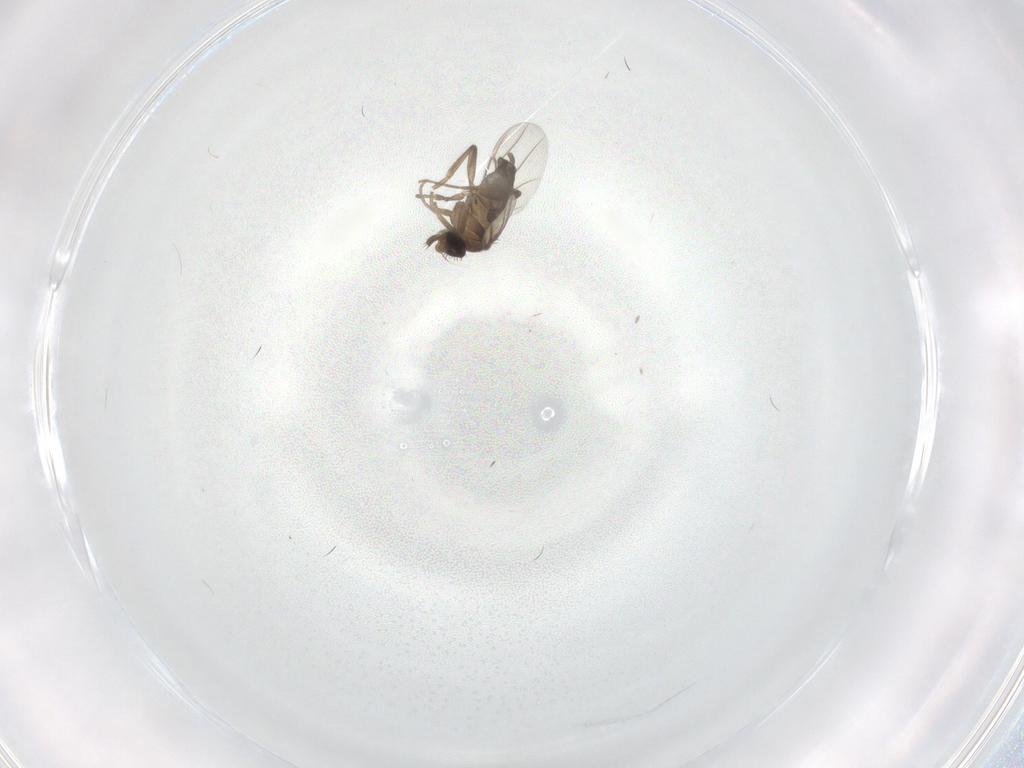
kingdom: Animalia
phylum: Arthropoda
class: Insecta
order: Diptera
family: Phoridae
